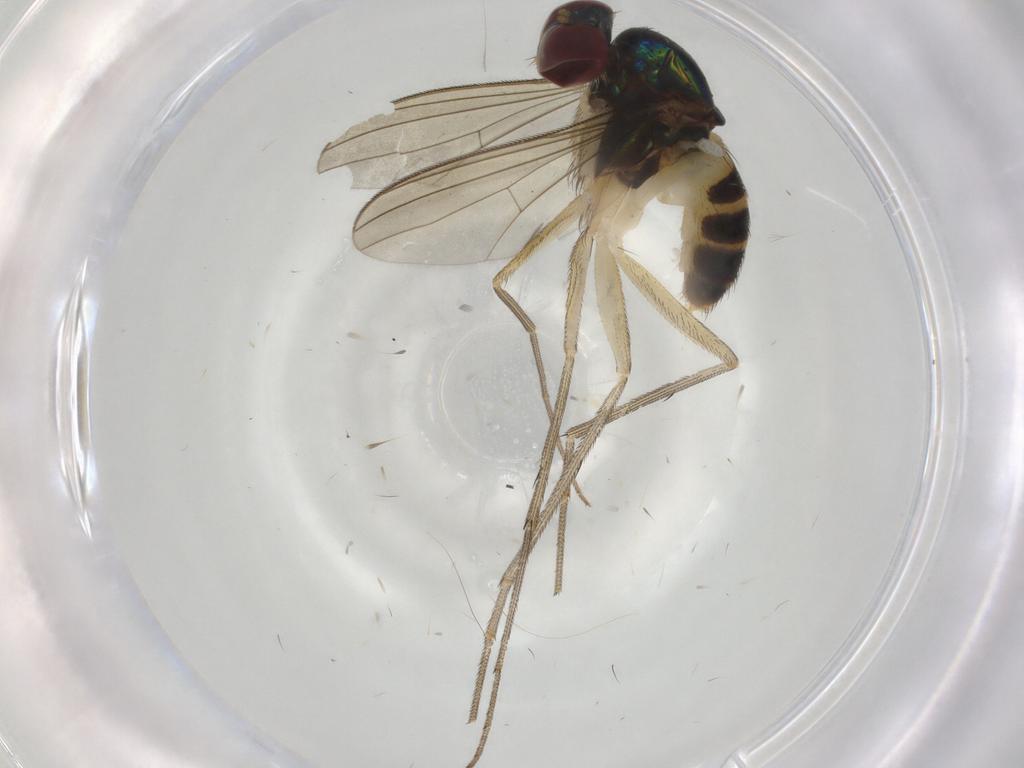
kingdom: Animalia
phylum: Arthropoda
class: Insecta
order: Diptera
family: Dolichopodidae
